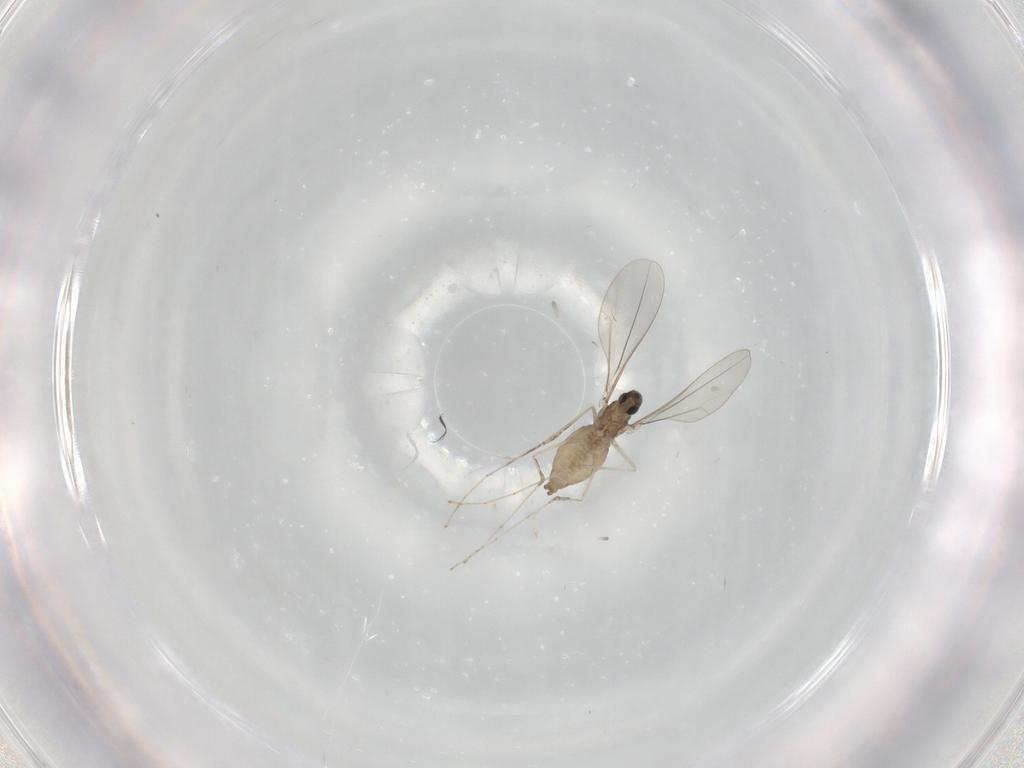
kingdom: Animalia
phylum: Arthropoda
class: Insecta
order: Diptera
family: Cecidomyiidae
